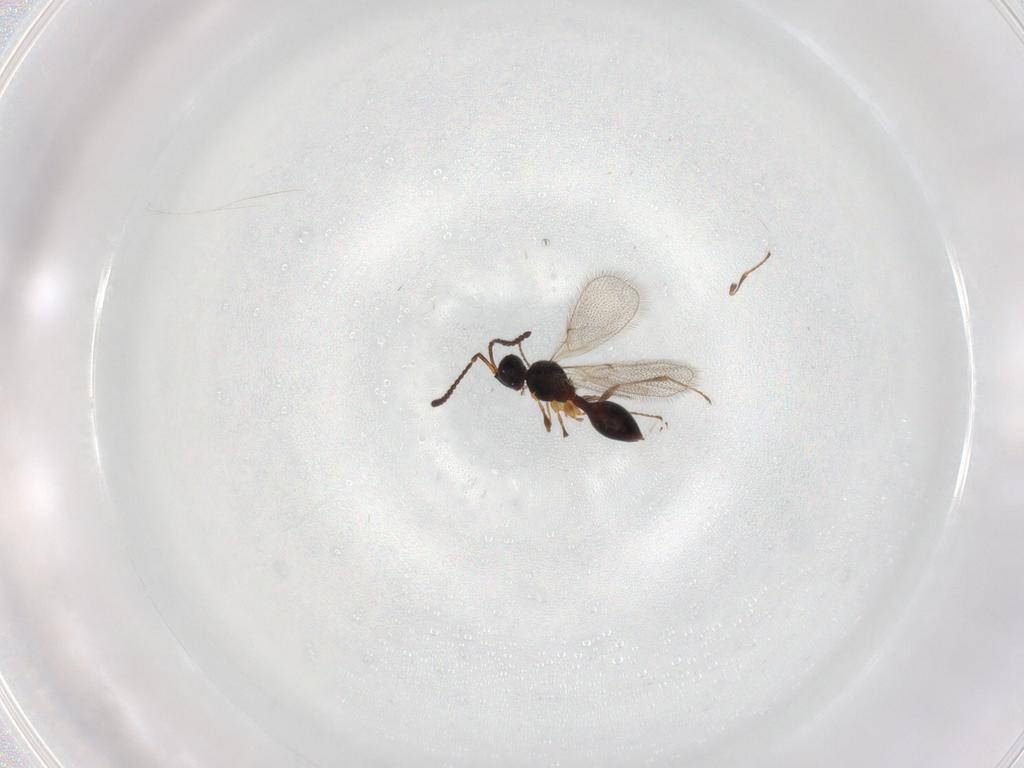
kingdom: Animalia
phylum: Arthropoda
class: Insecta
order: Hymenoptera
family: Diapriidae
